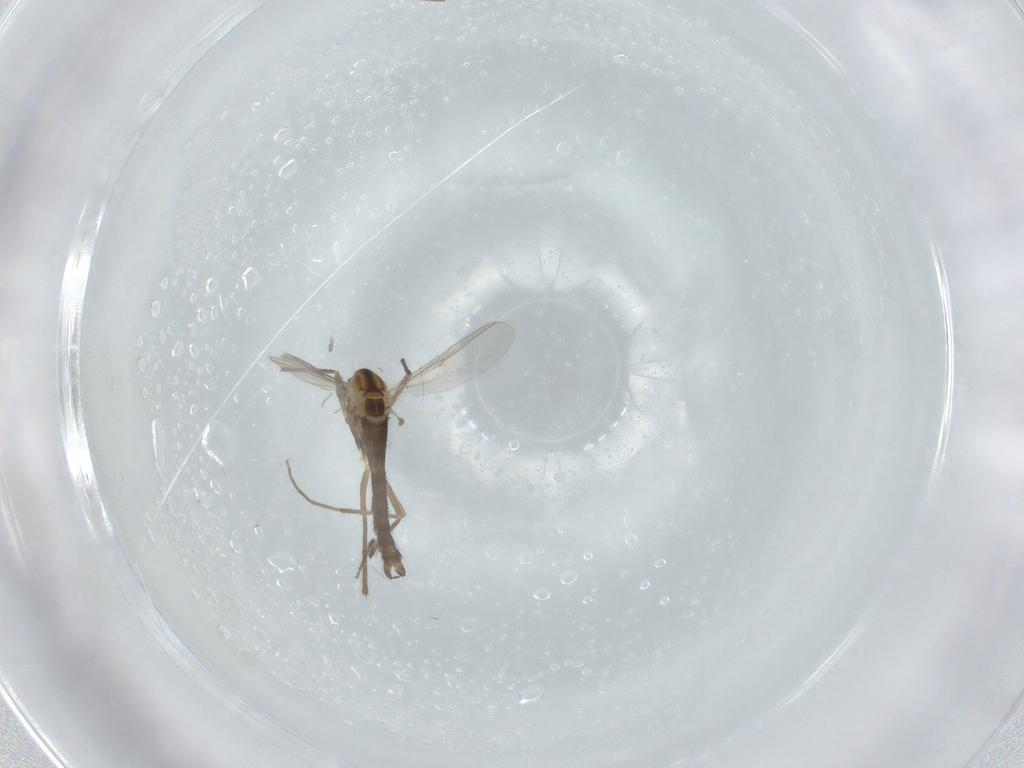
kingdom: Animalia
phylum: Arthropoda
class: Insecta
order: Diptera
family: Chironomidae
